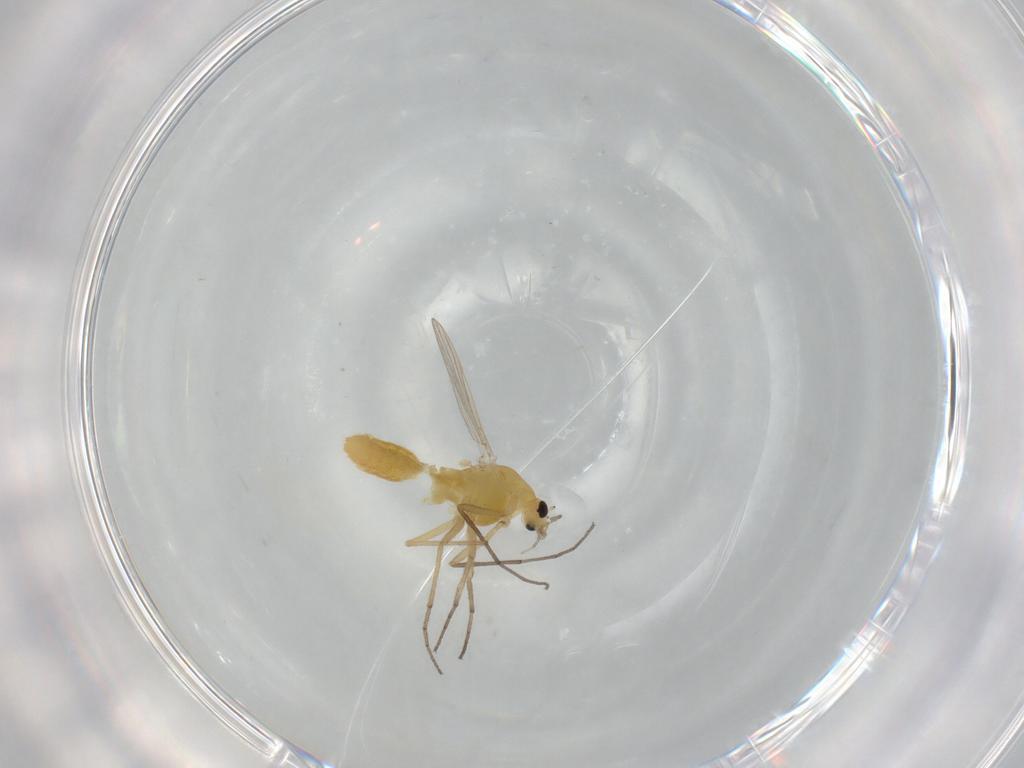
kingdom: Animalia
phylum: Arthropoda
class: Insecta
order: Diptera
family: Chironomidae
